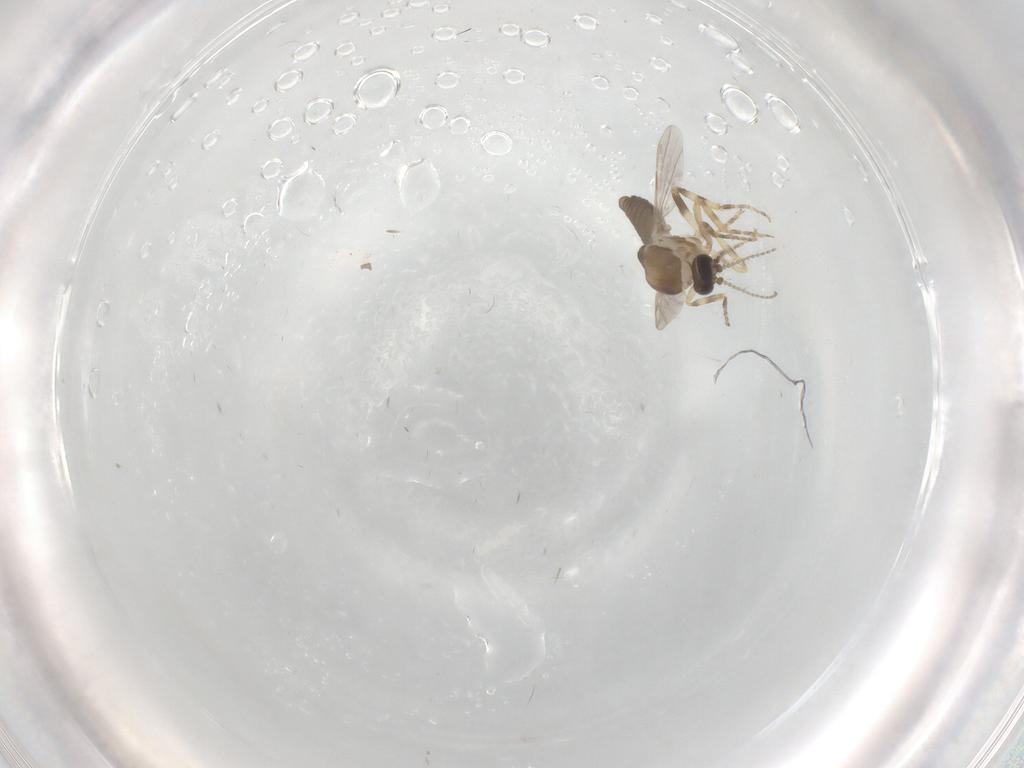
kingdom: Animalia
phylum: Arthropoda
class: Insecta
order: Diptera
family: Ceratopogonidae
